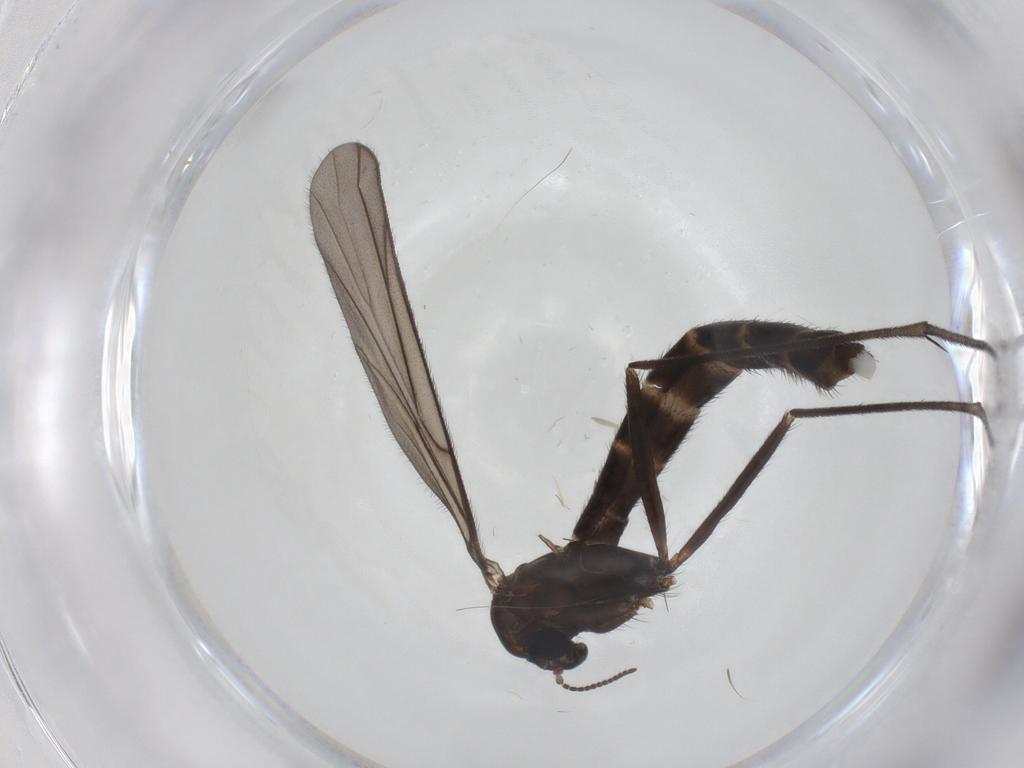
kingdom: Animalia
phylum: Arthropoda
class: Insecta
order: Diptera
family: Ditomyiidae
